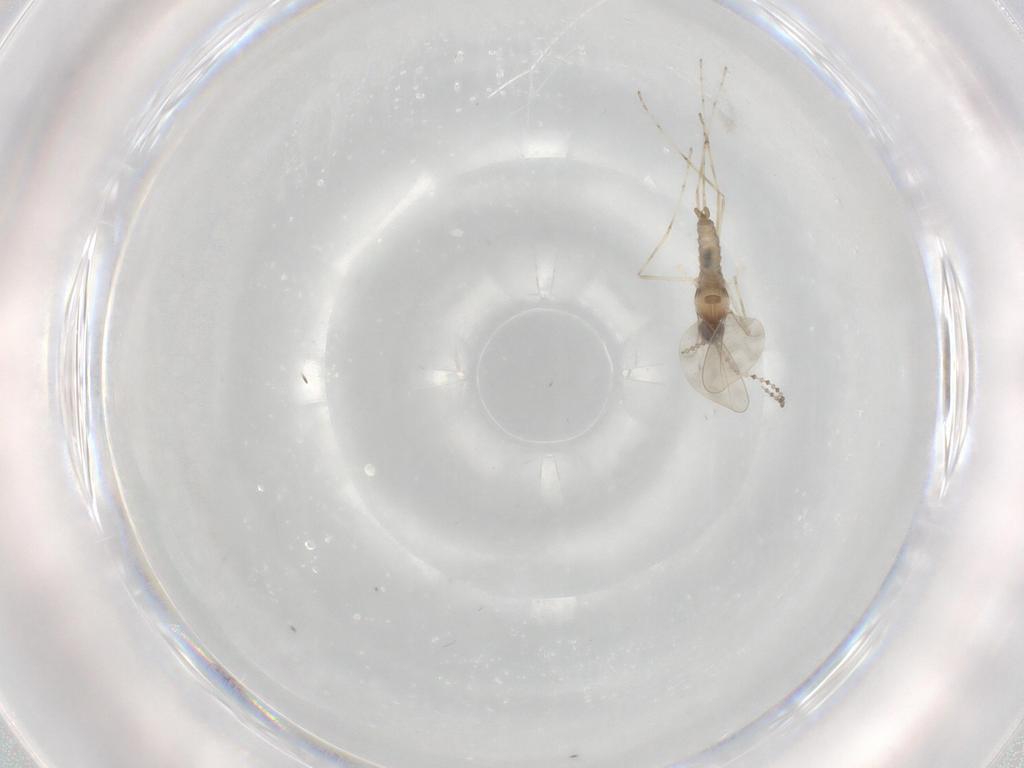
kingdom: Animalia
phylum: Arthropoda
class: Insecta
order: Diptera
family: Cecidomyiidae
